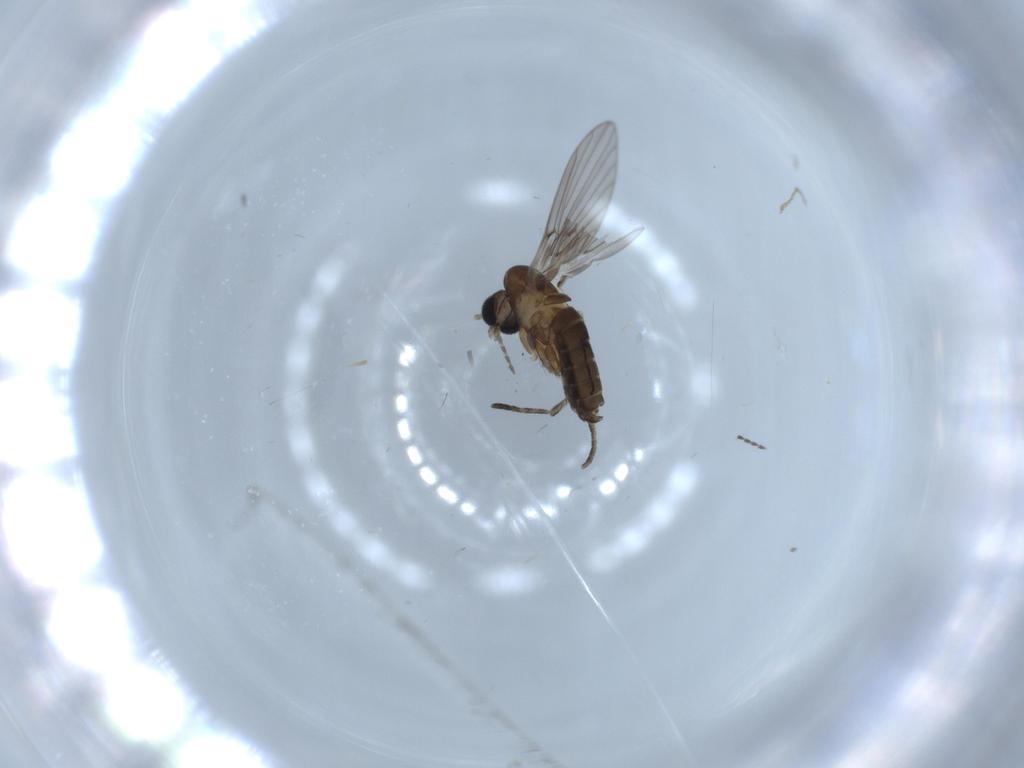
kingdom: Animalia
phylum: Arthropoda
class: Insecta
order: Diptera
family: Psychodidae
